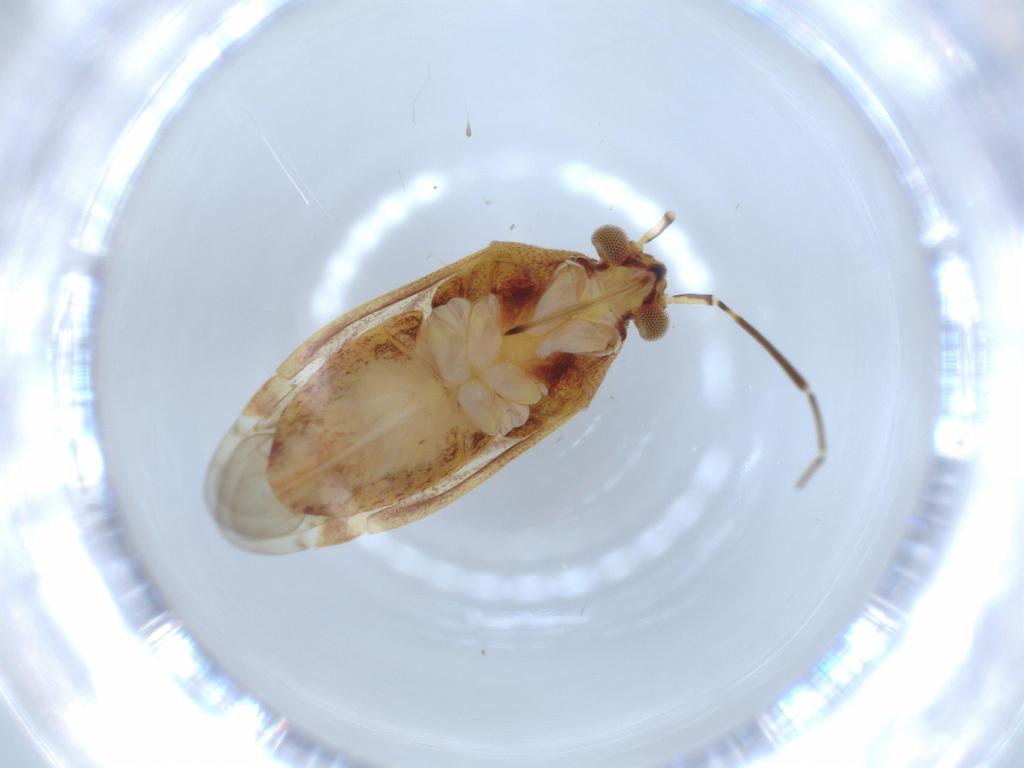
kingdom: Animalia
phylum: Arthropoda
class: Insecta
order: Hemiptera
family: Miridae
